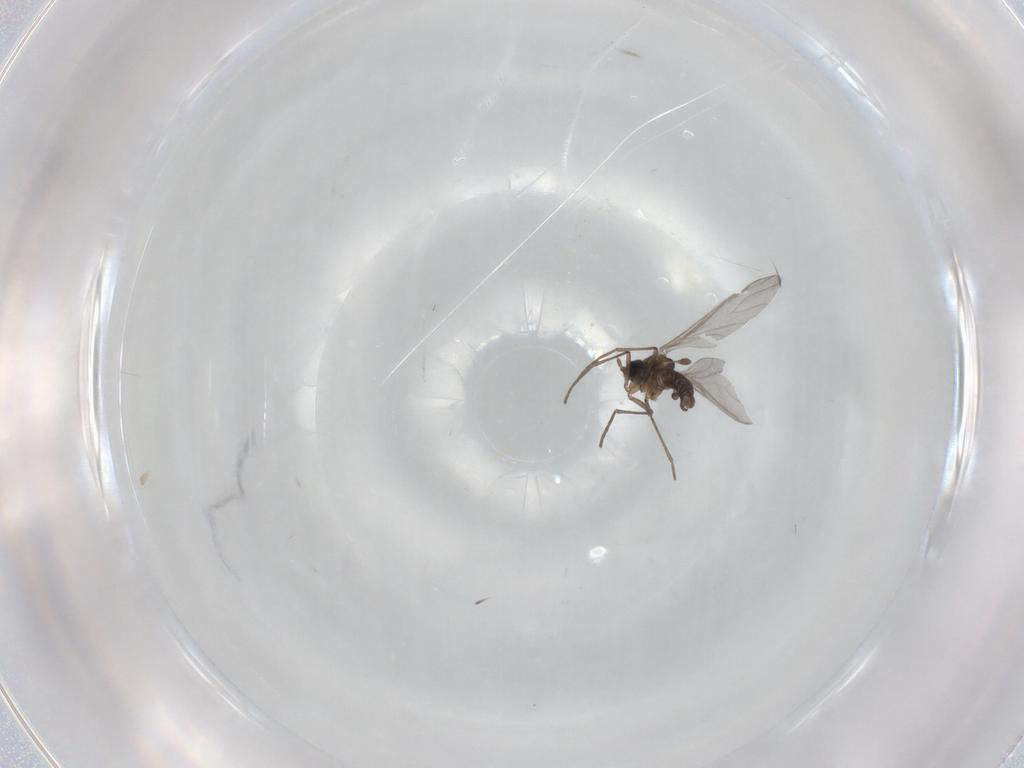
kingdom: Animalia
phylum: Arthropoda
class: Insecta
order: Diptera
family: Sciaridae
